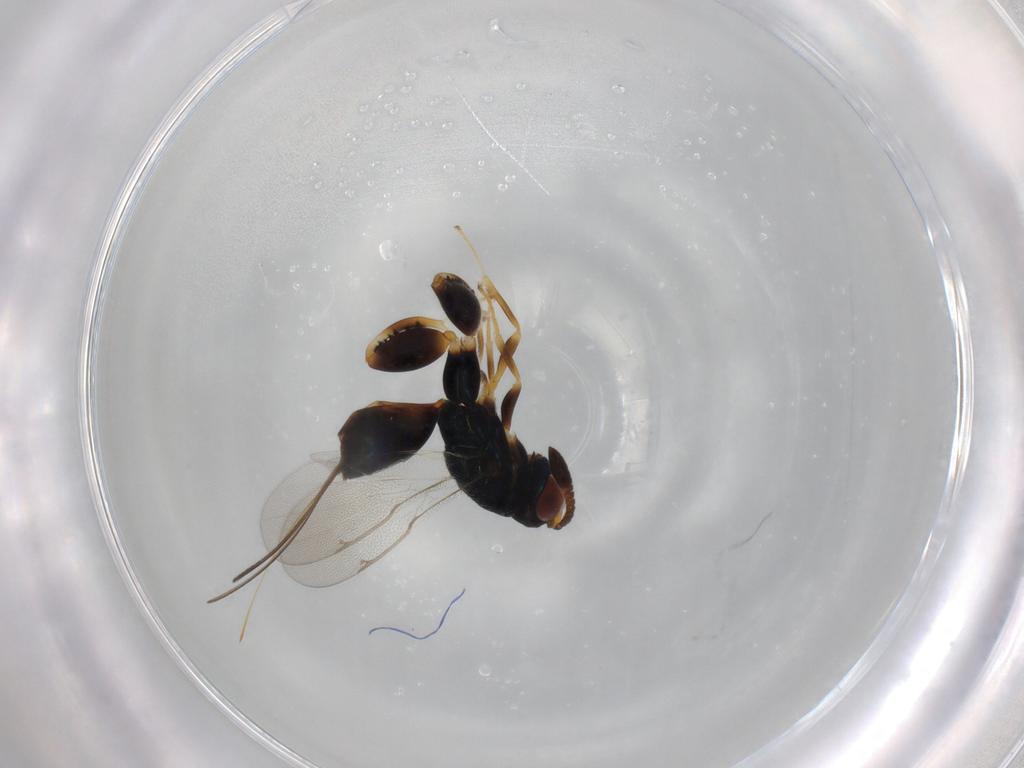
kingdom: Animalia
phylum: Arthropoda
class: Insecta
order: Hymenoptera
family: Torymidae
